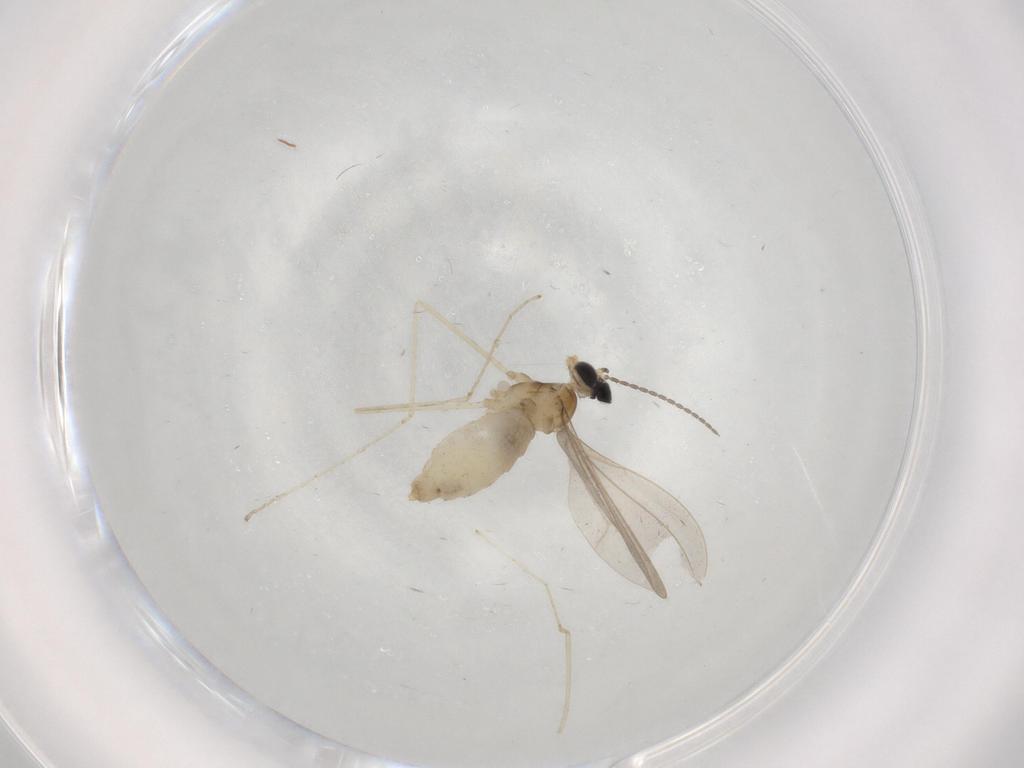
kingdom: Animalia
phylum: Arthropoda
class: Insecta
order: Diptera
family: Cecidomyiidae
